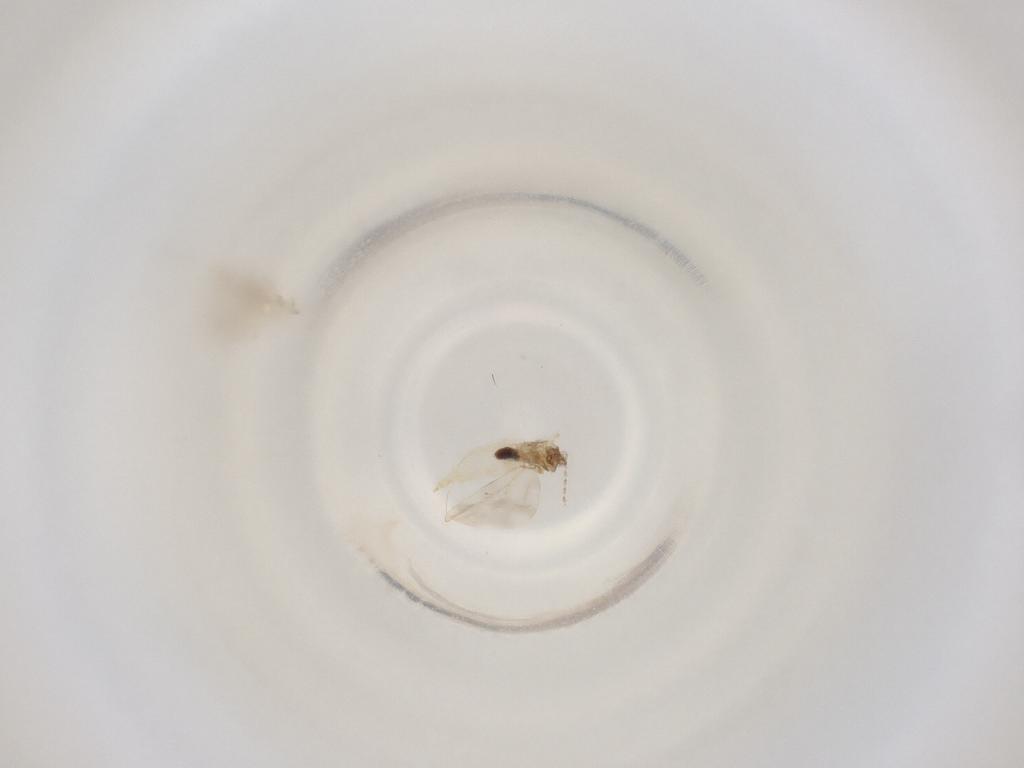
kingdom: Animalia
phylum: Arthropoda
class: Insecta
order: Diptera
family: Cecidomyiidae
